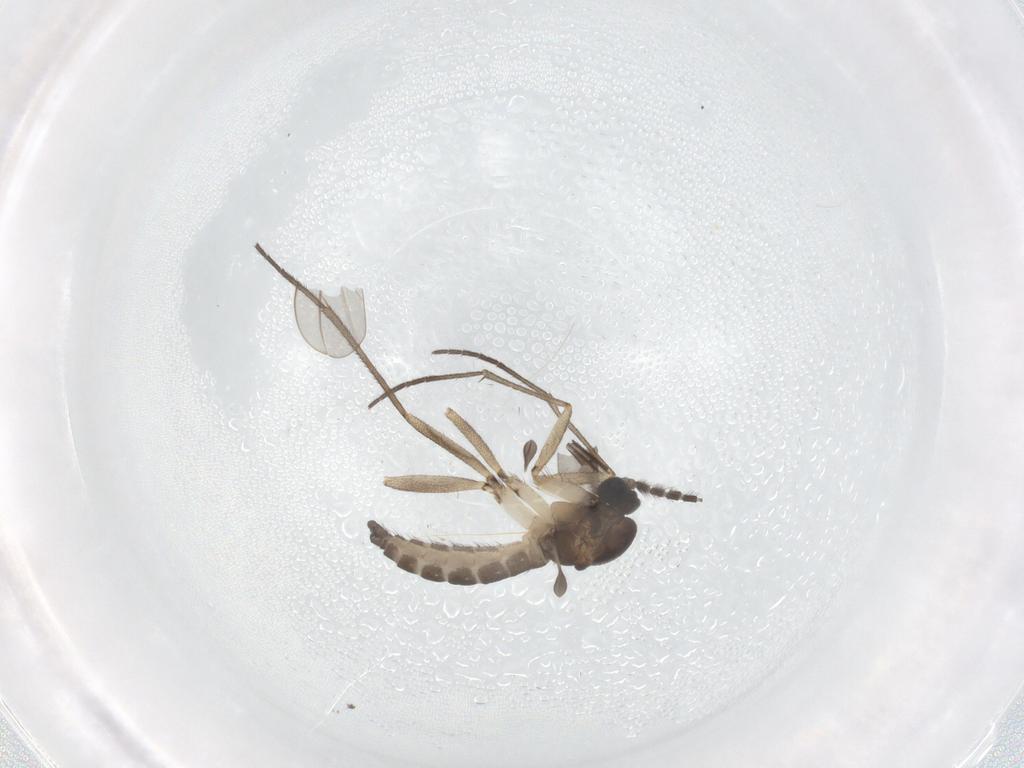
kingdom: Animalia
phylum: Arthropoda
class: Insecta
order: Diptera
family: Sciaridae
